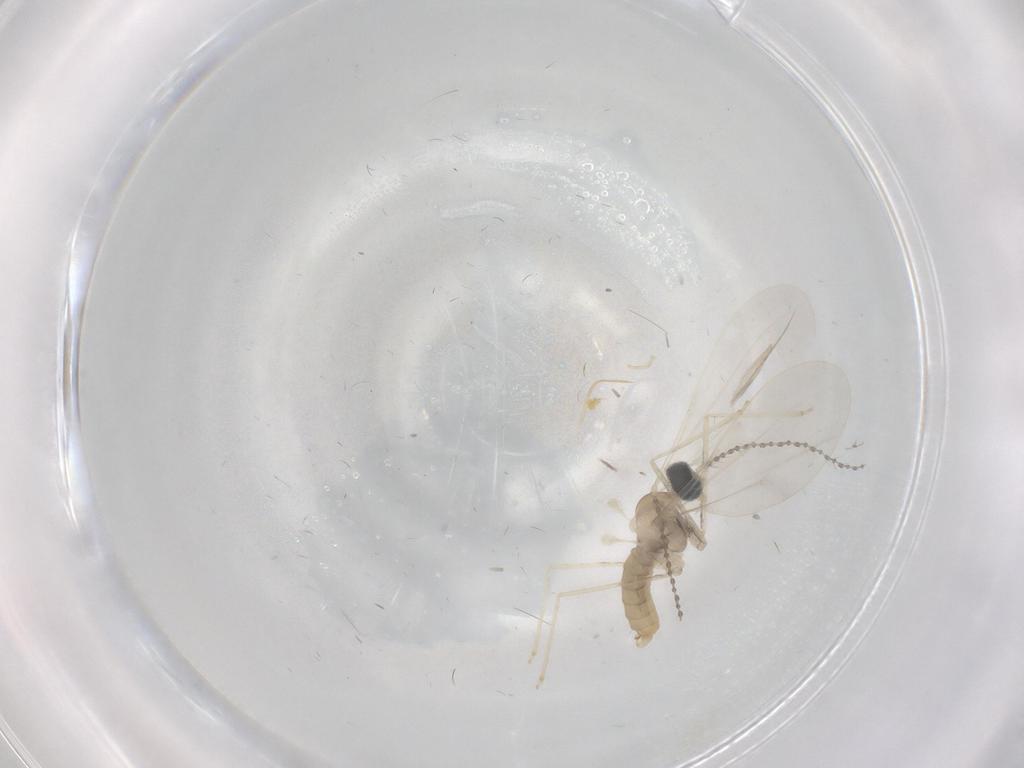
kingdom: Animalia
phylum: Arthropoda
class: Insecta
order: Diptera
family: Cecidomyiidae
